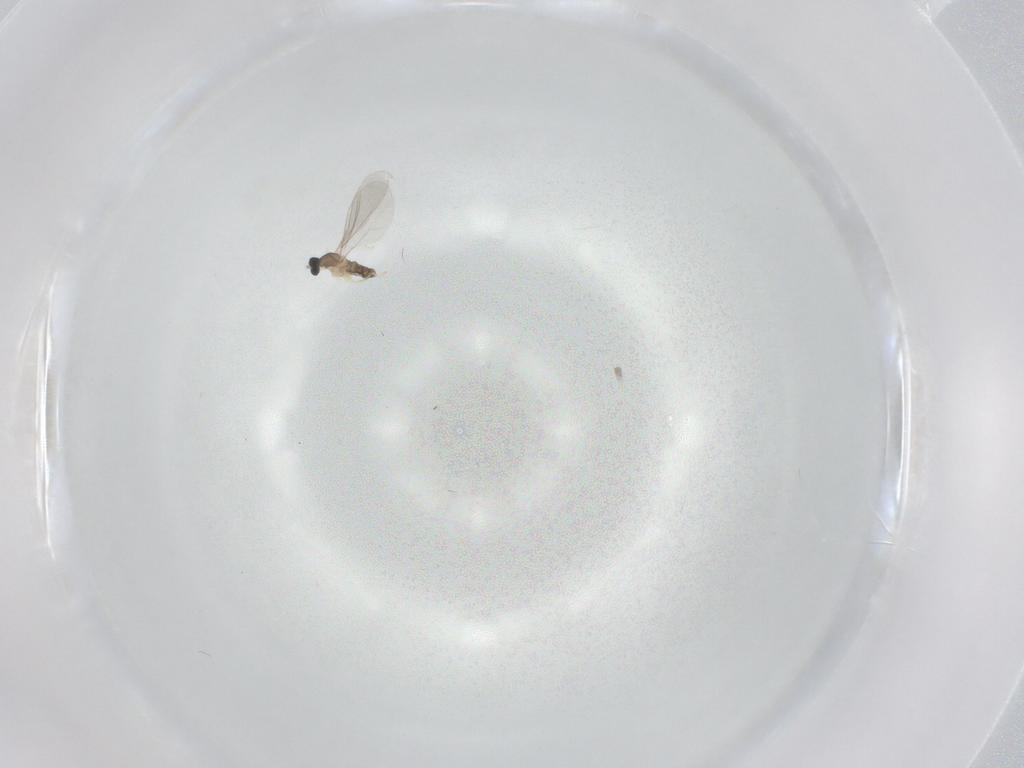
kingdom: Animalia
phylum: Arthropoda
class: Insecta
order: Diptera
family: Cecidomyiidae
